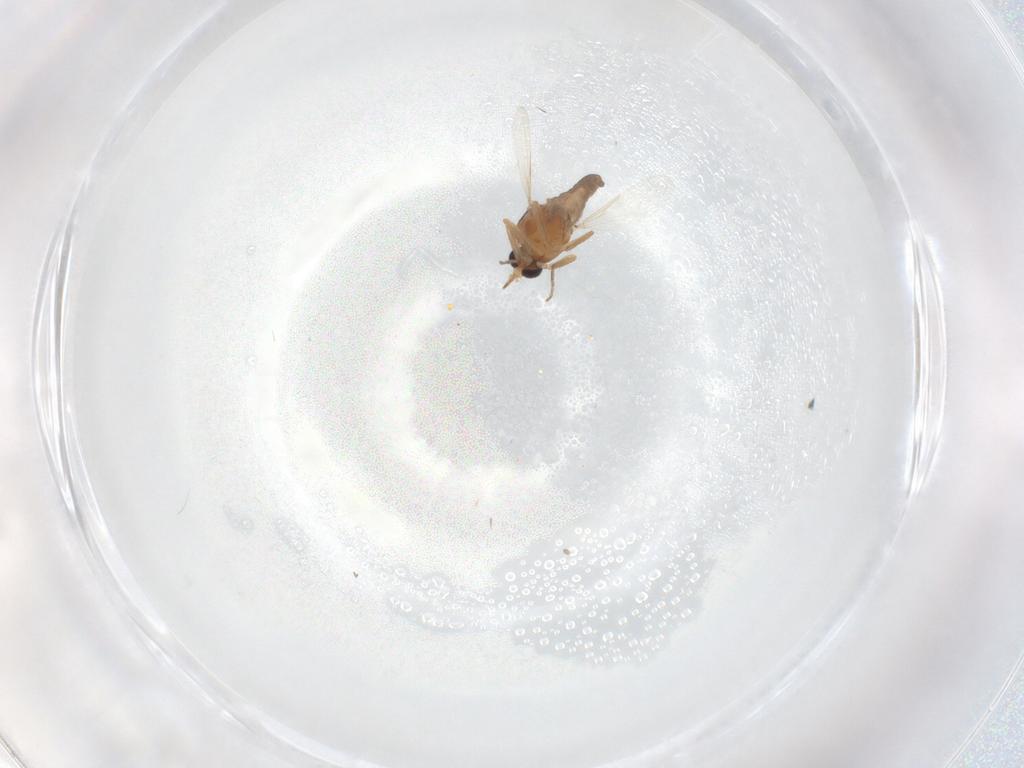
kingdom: Animalia
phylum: Arthropoda
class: Insecta
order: Diptera
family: Ceratopogonidae
